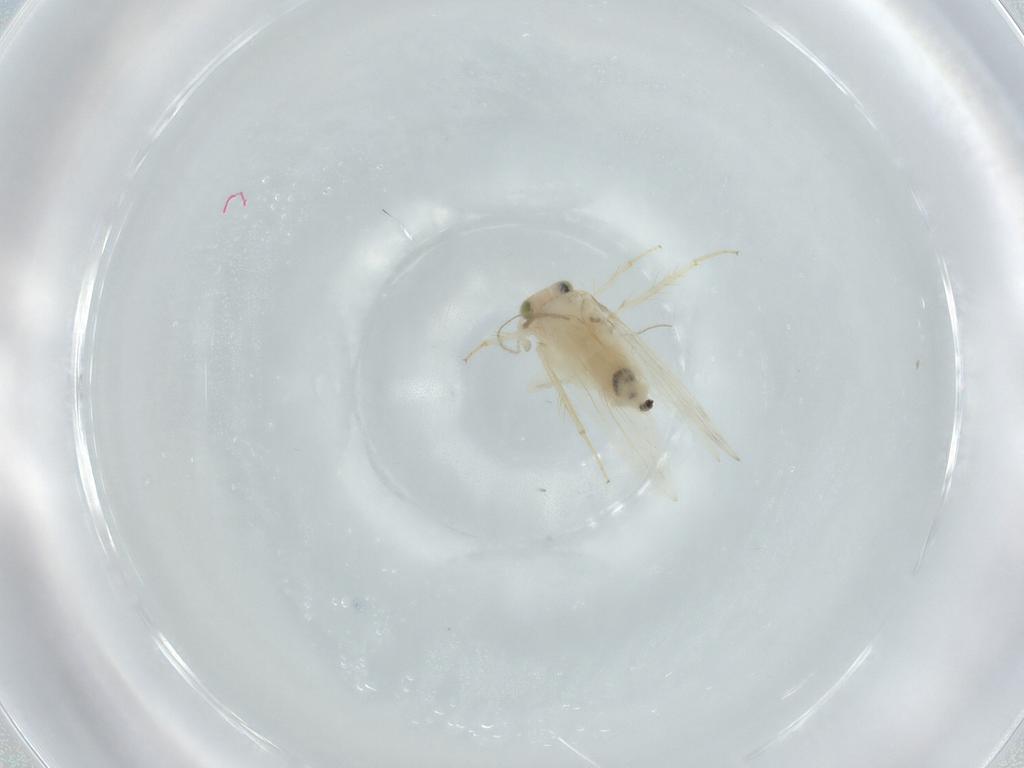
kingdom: Animalia
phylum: Arthropoda
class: Insecta
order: Psocodea
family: Lepidopsocidae
